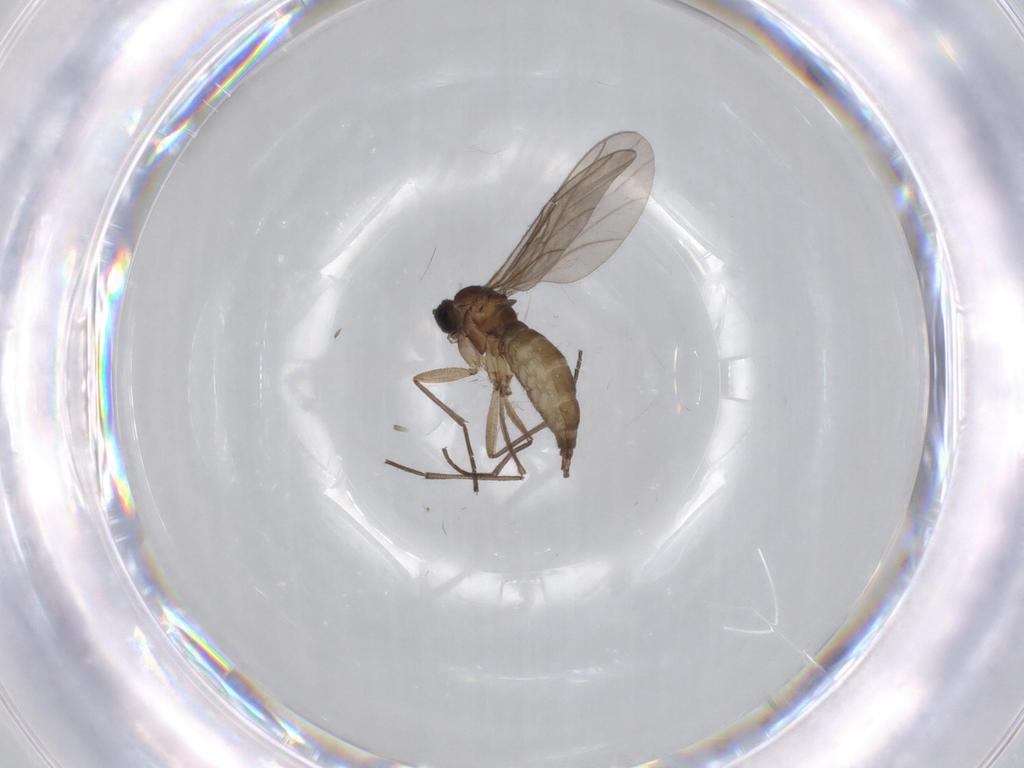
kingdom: Animalia
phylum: Arthropoda
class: Insecta
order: Diptera
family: Sciaridae
